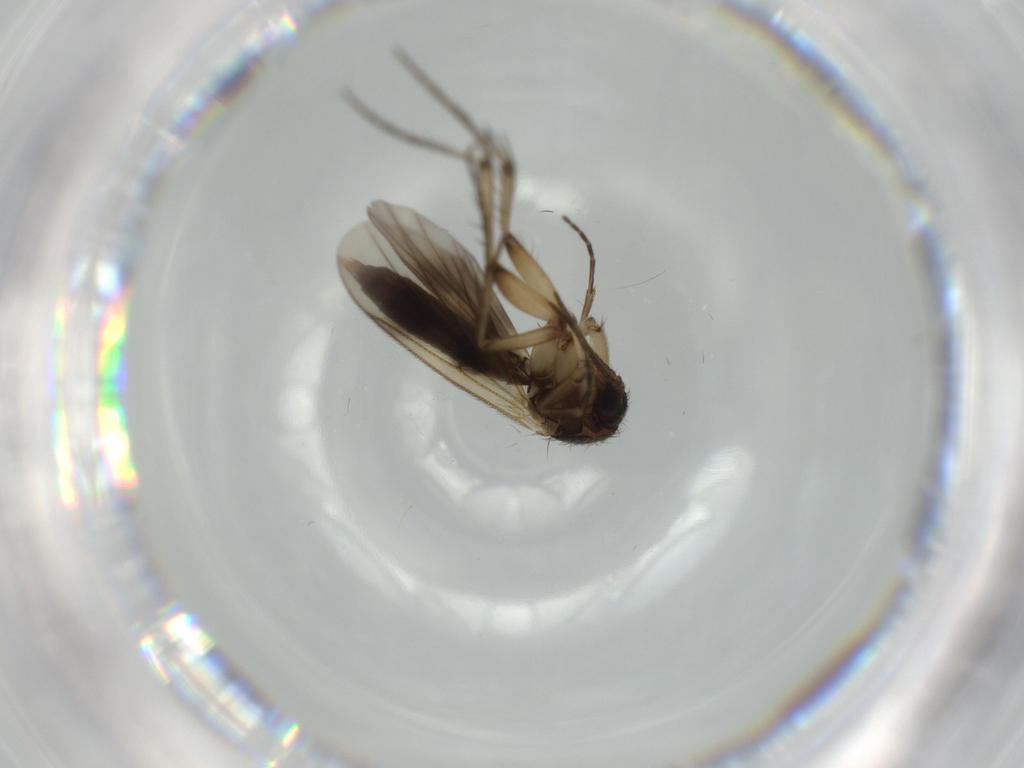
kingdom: Animalia
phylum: Arthropoda
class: Insecta
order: Diptera
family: Heleomyzidae
